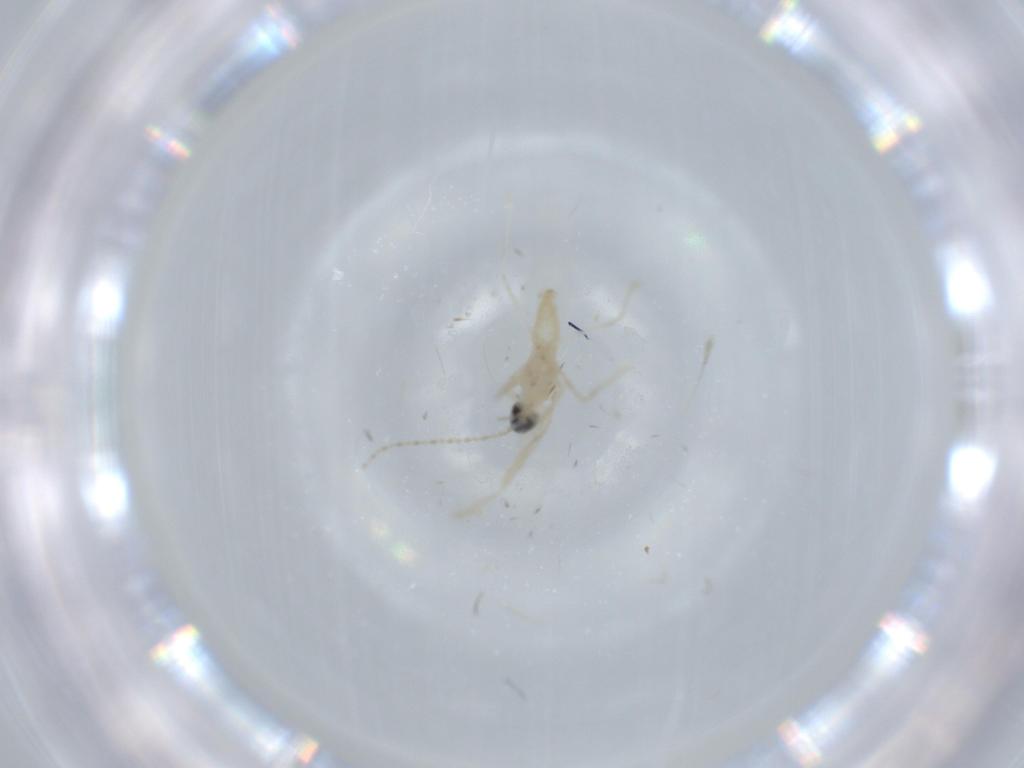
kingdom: Animalia
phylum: Arthropoda
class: Insecta
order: Diptera
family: Cecidomyiidae
